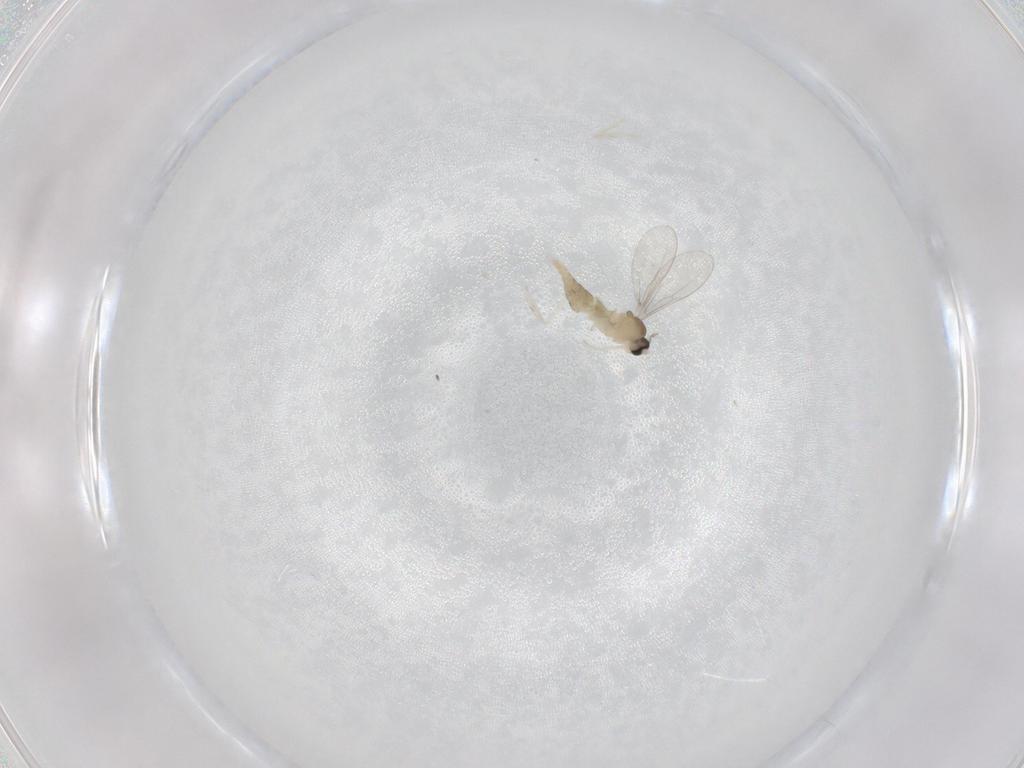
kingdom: Animalia
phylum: Arthropoda
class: Insecta
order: Diptera
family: Cecidomyiidae
